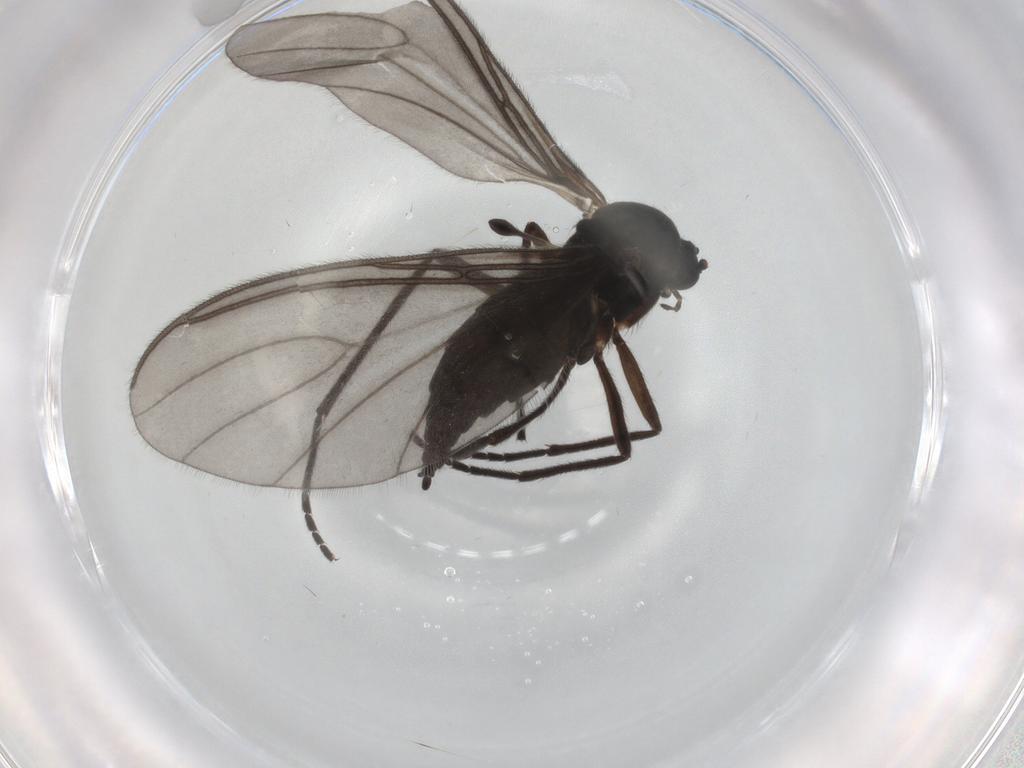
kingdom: Animalia
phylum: Arthropoda
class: Insecta
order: Diptera
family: Sciaridae
